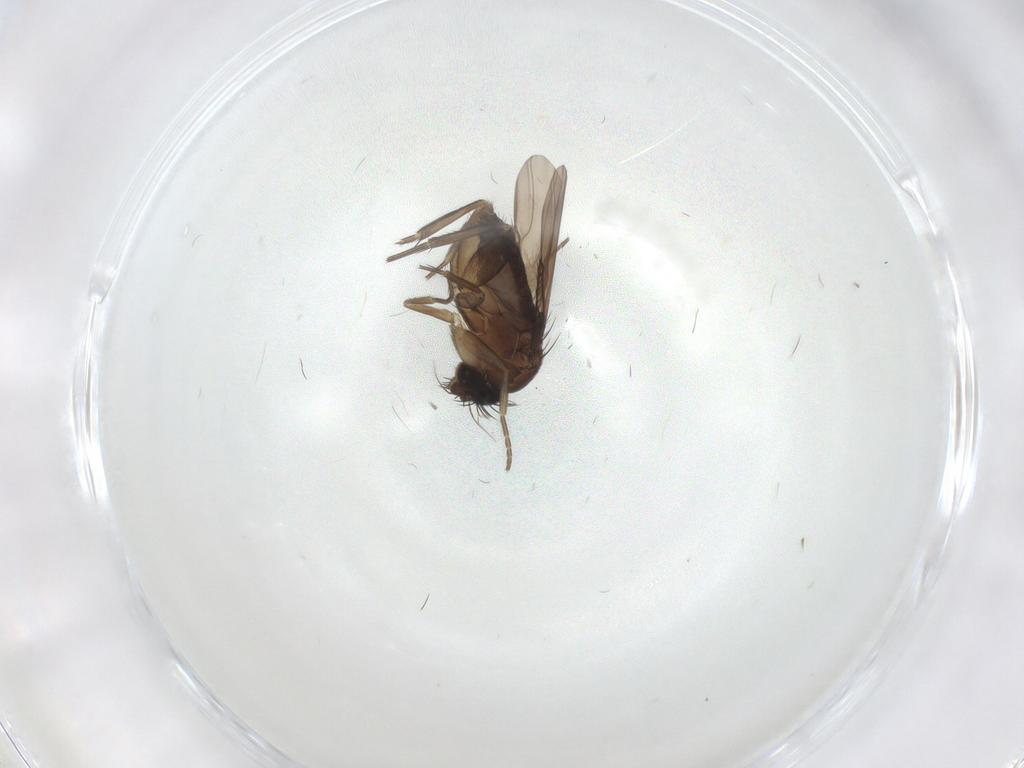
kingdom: Animalia
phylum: Arthropoda
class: Insecta
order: Diptera
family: Phoridae
